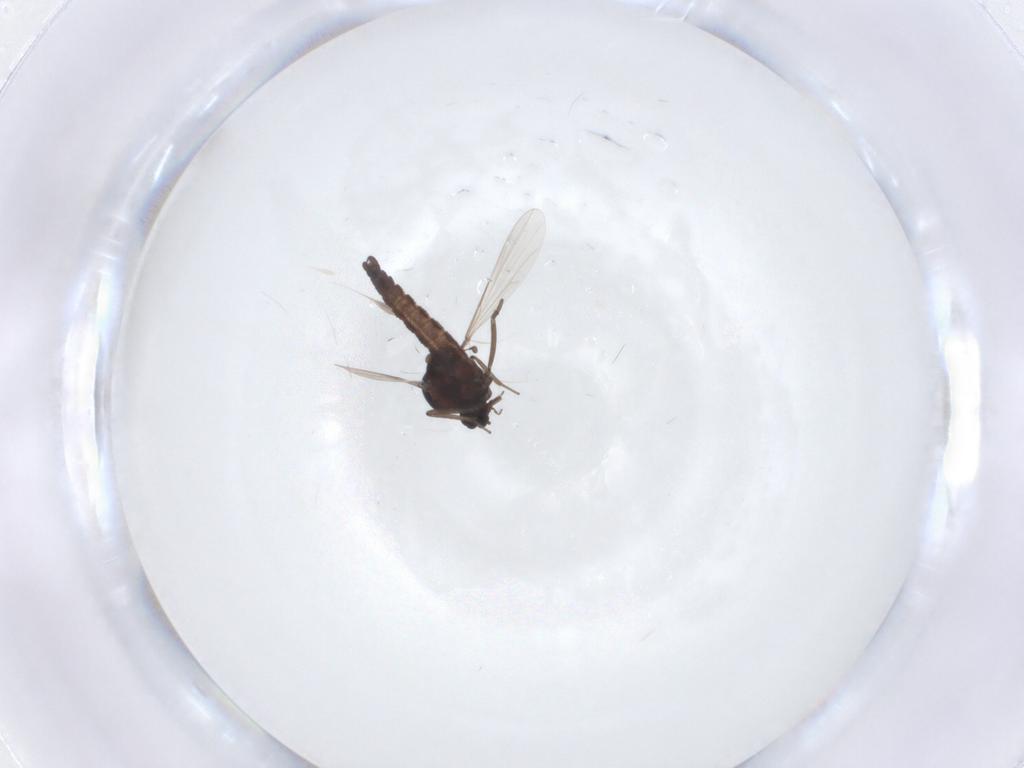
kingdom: Animalia
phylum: Arthropoda
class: Insecta
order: Diptera
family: Ceratopogonidae
